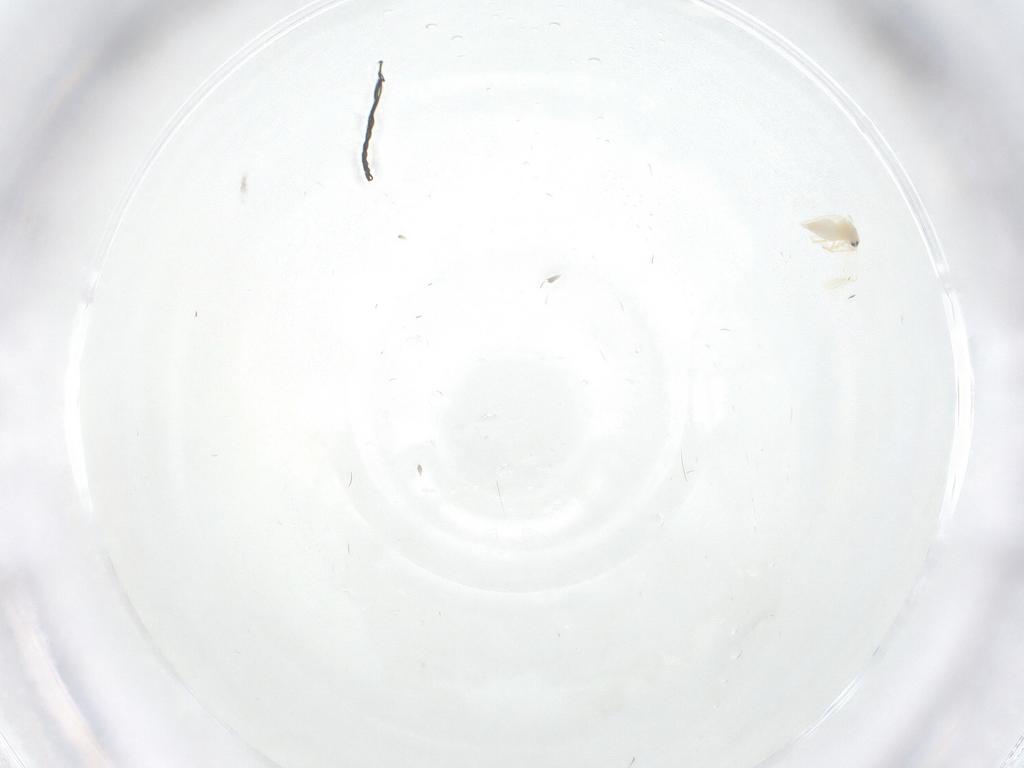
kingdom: Animalia
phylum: Arthropoda
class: Insecta
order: Hemiptera
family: Aleyrodidae
